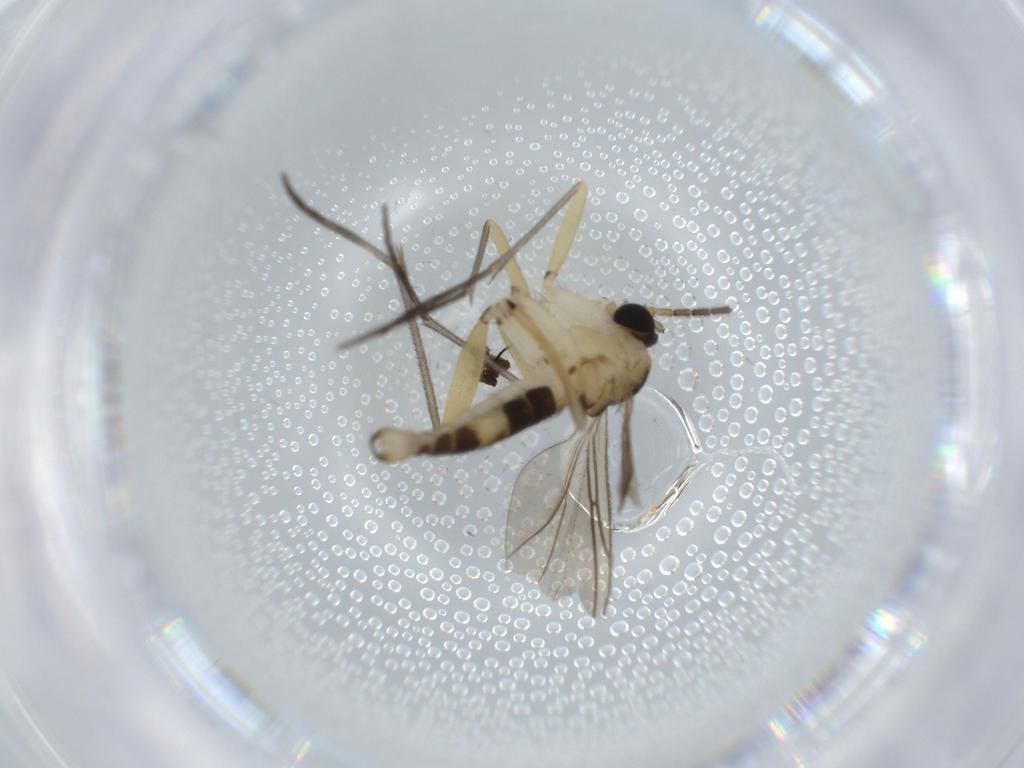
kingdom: Animalia
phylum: Arthropoda
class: Insecta
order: Diptera
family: Sciaridae
